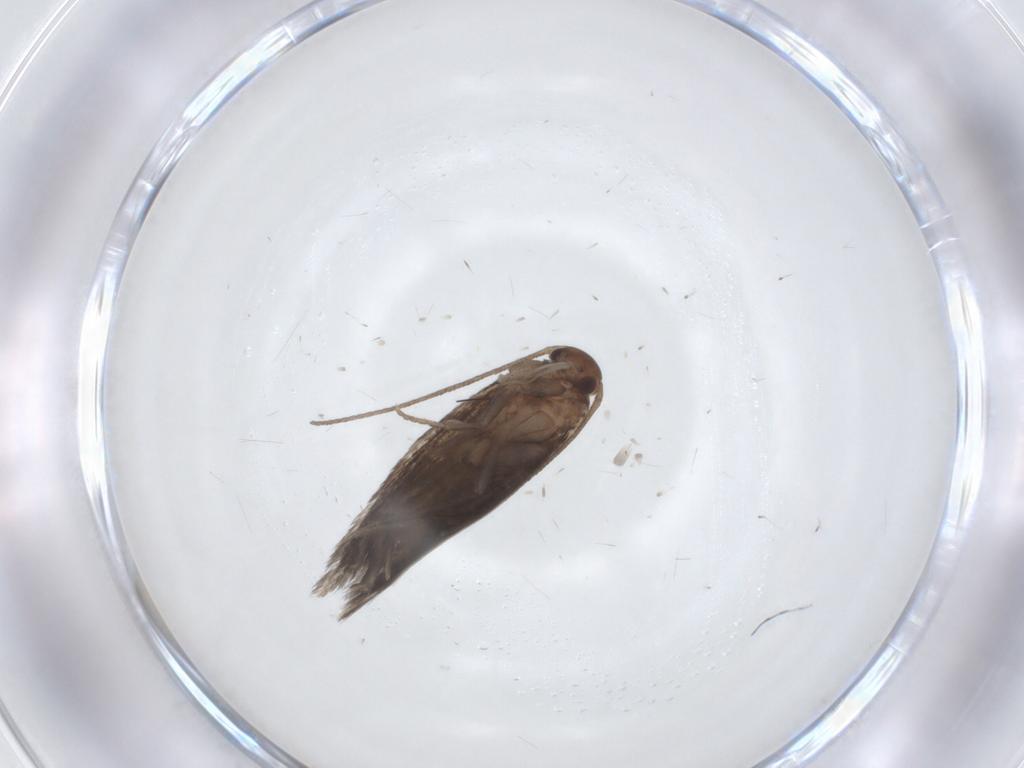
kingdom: Animalia
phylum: Arthropoda
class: Insecta
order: Lepidoptera
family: Elachistidae
